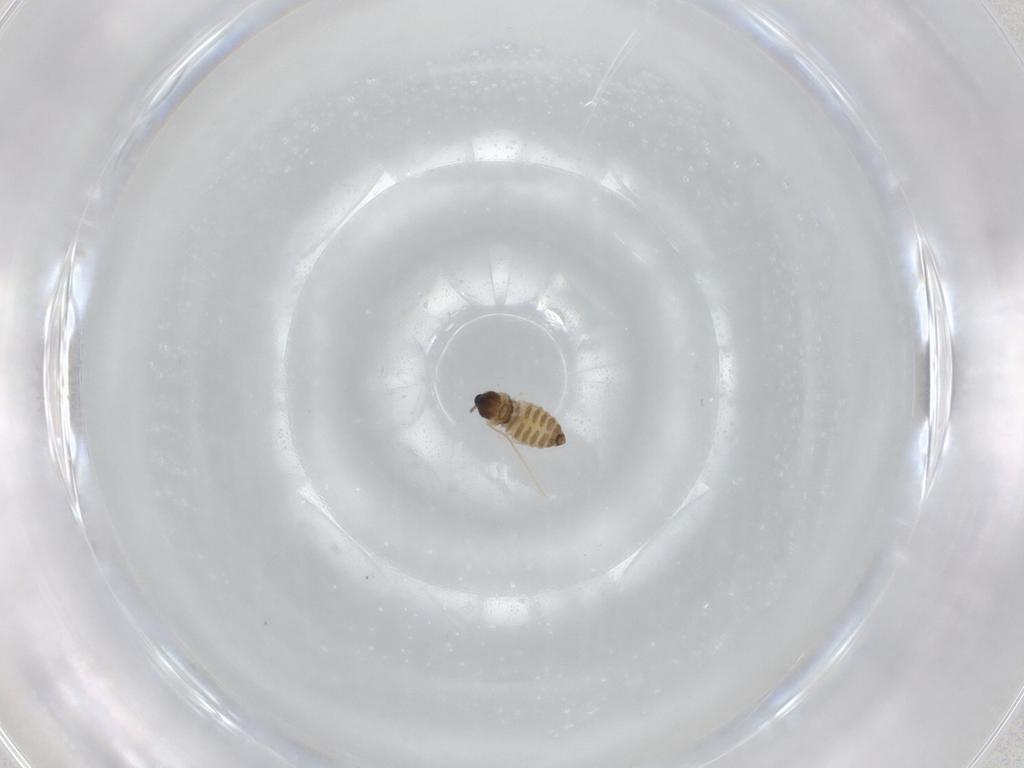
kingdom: Animalia
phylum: Arthropoda
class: Insecta
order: Diptera
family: Cecidomyiidae
